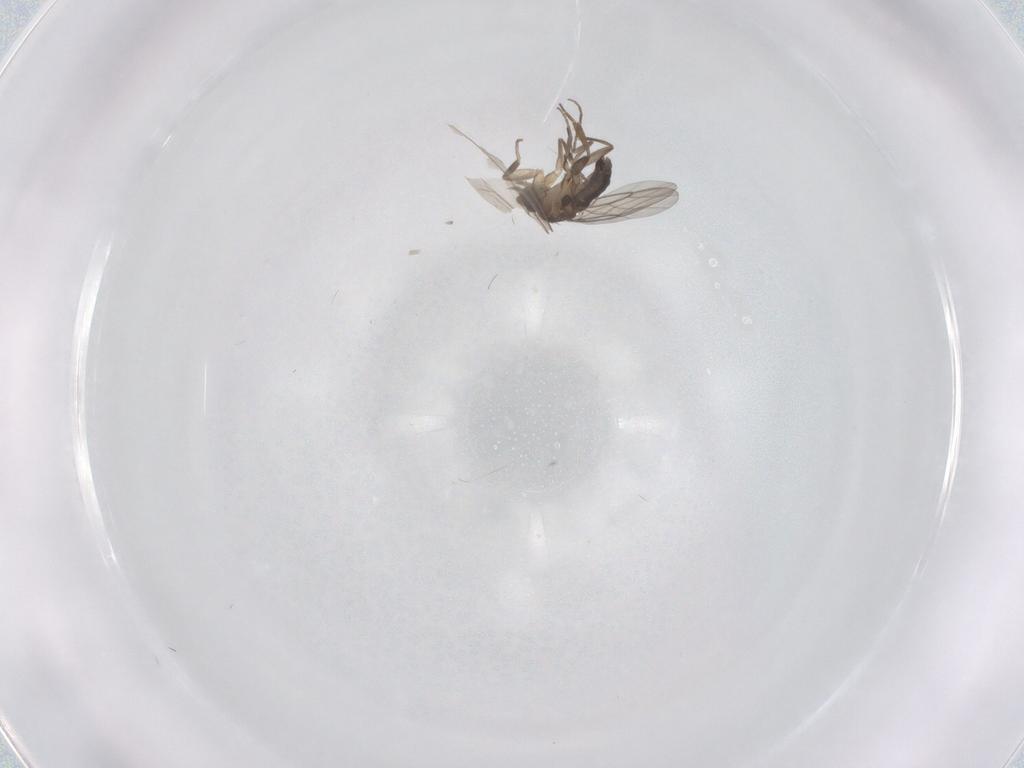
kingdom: Animalia
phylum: Arthropoda
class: Insecta
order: Diptera
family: Phoridae
